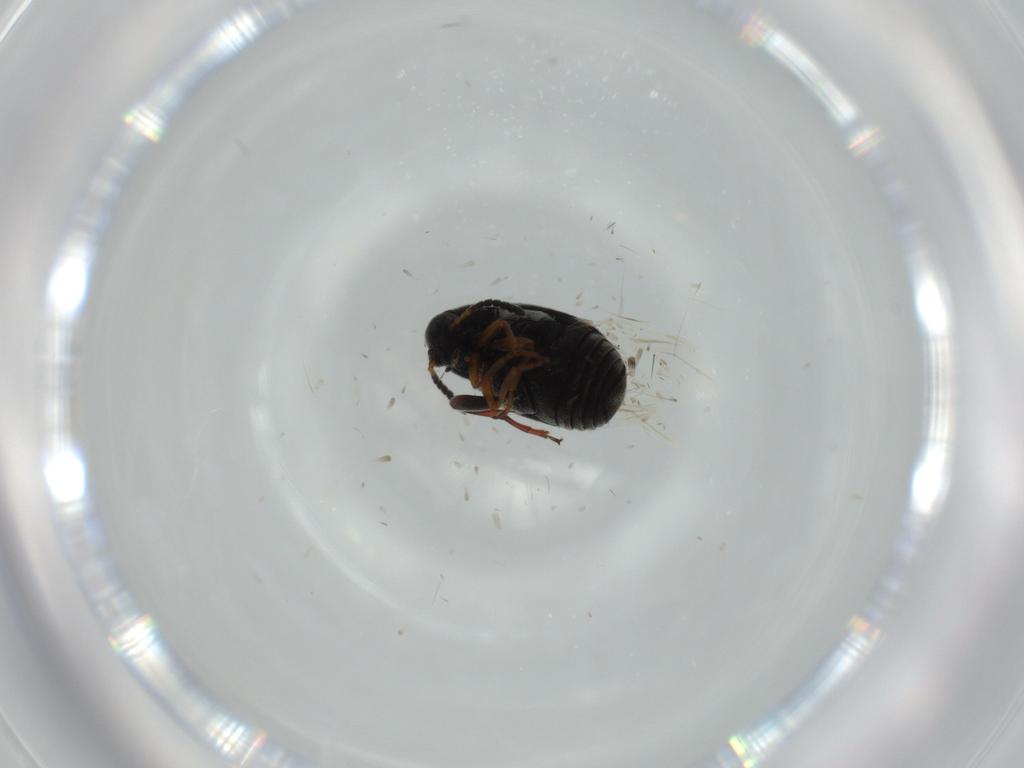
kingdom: Animalia
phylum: Arthropoda
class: Insecta
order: Coleoptera
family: Chrysomelidae
